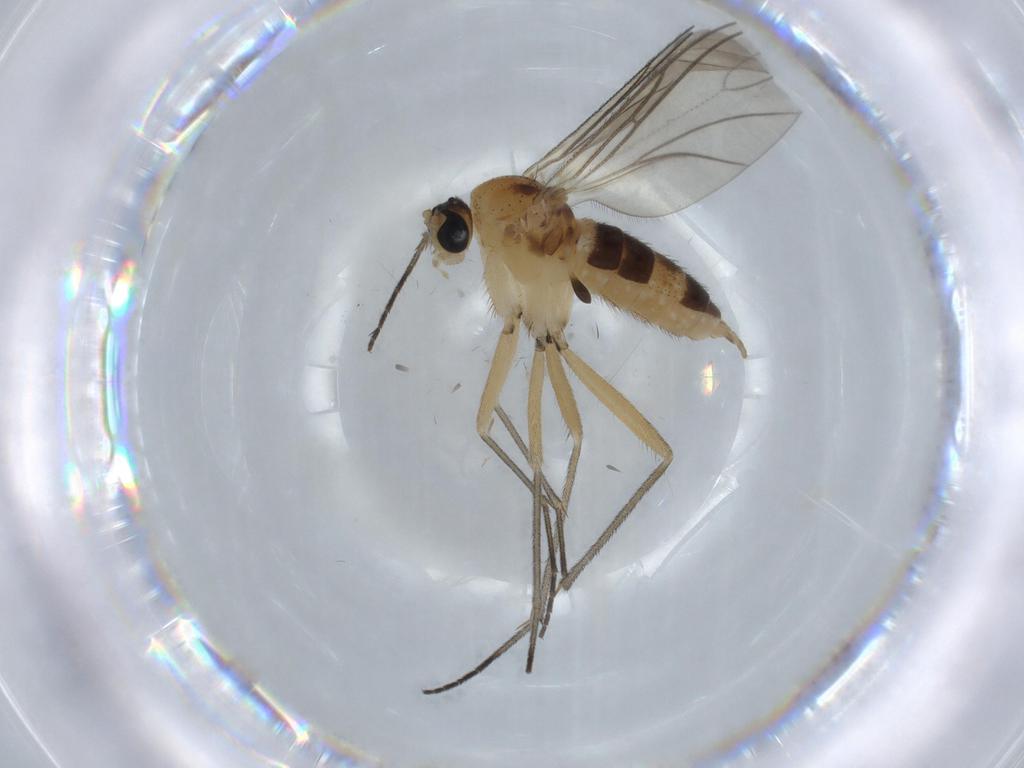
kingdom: Animalia
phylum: Arthropoda
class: Insecta
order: Diptera
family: Sciaridae
